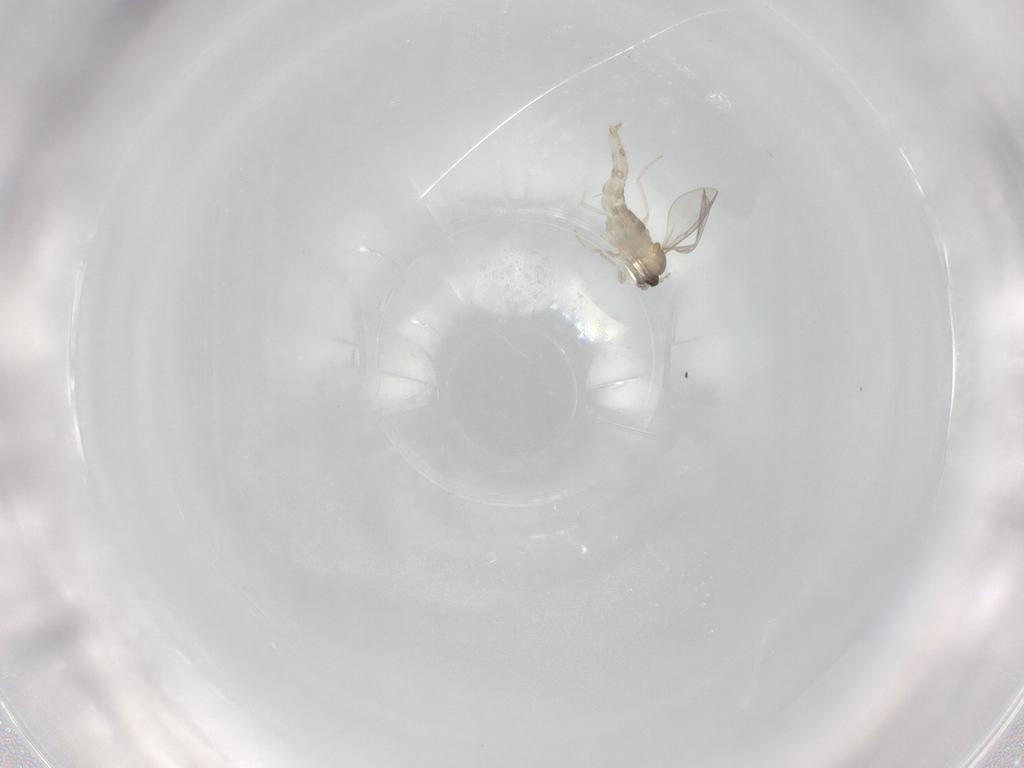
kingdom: Animalia
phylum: Arthropoda
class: Insecta
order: Diptera
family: Cecidomyiidae
